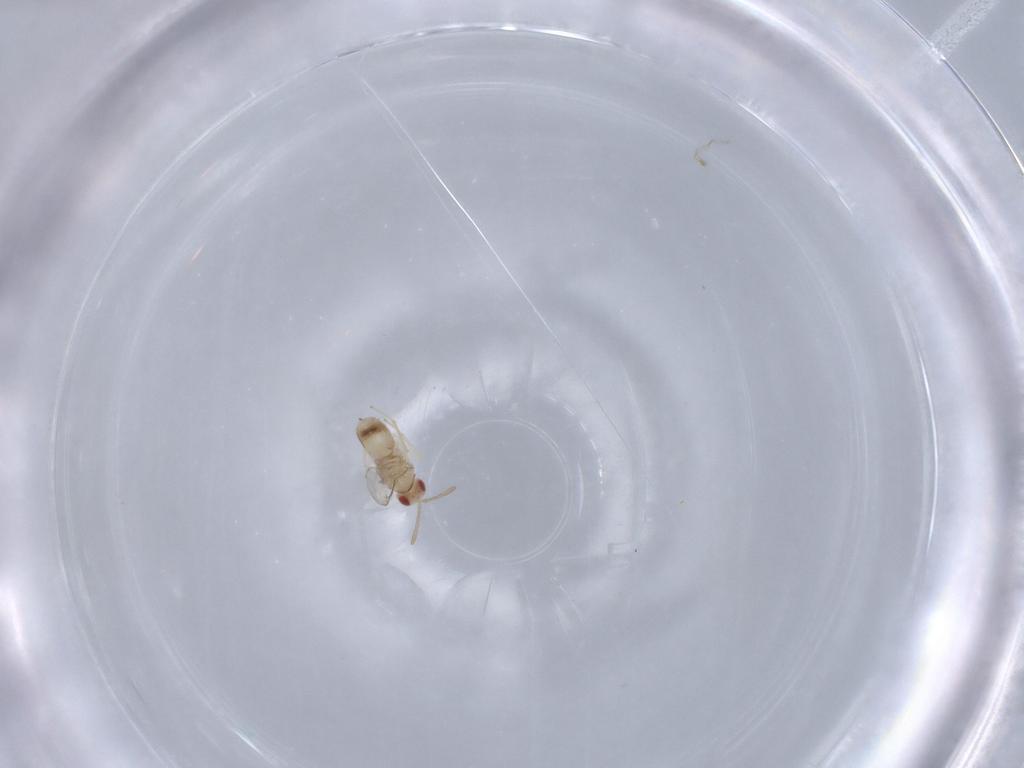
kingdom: Animalia
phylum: Arthropoda
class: Insecta
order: Hymenoptera
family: Aphelinidae
